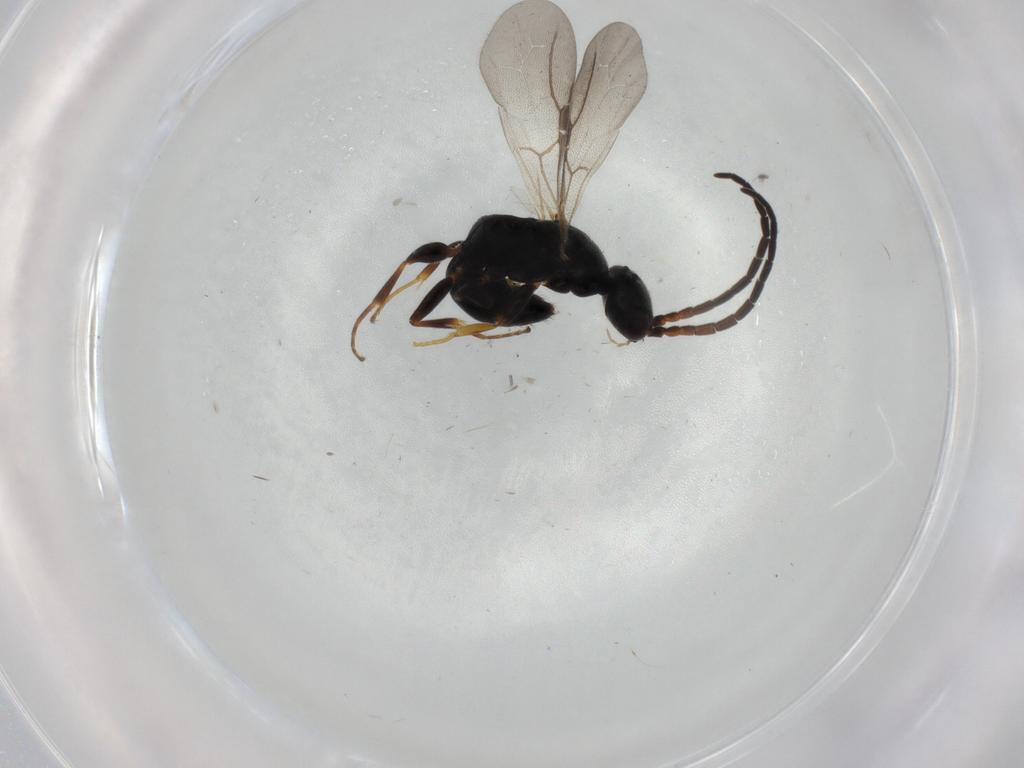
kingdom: Animalia
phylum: Arthropoda
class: Insecta
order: Hymenoptera
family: Bethylidae
